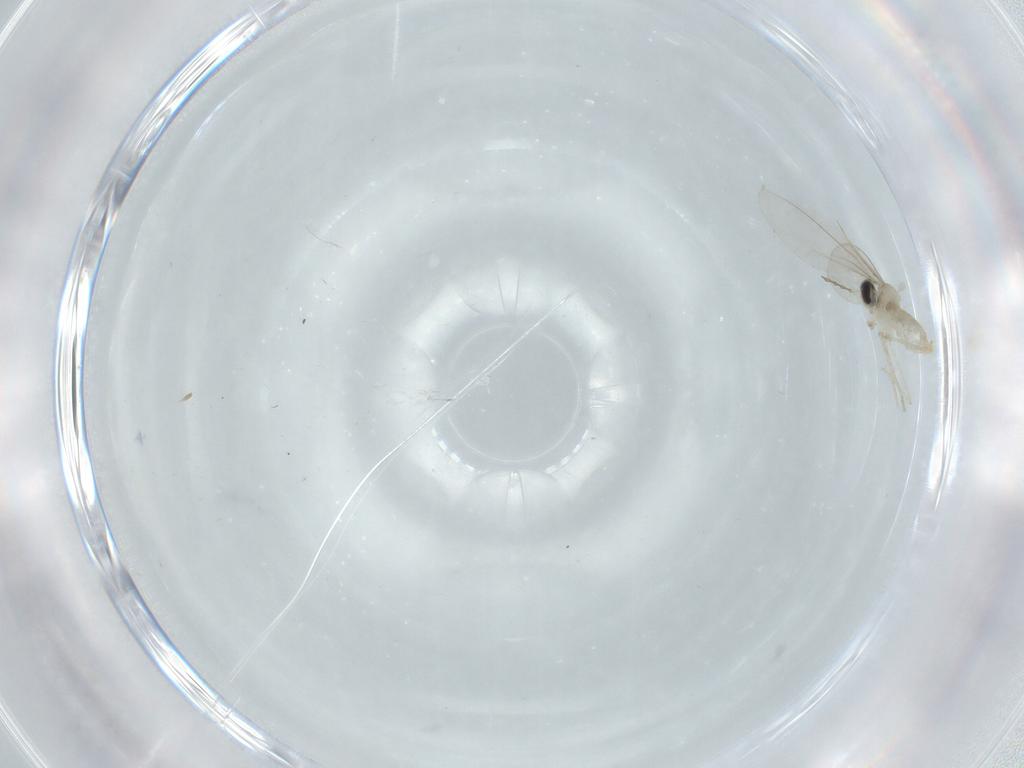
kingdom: Animalia
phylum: Arthropoda
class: Insecta
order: Diptera
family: Cecidomyiidae
